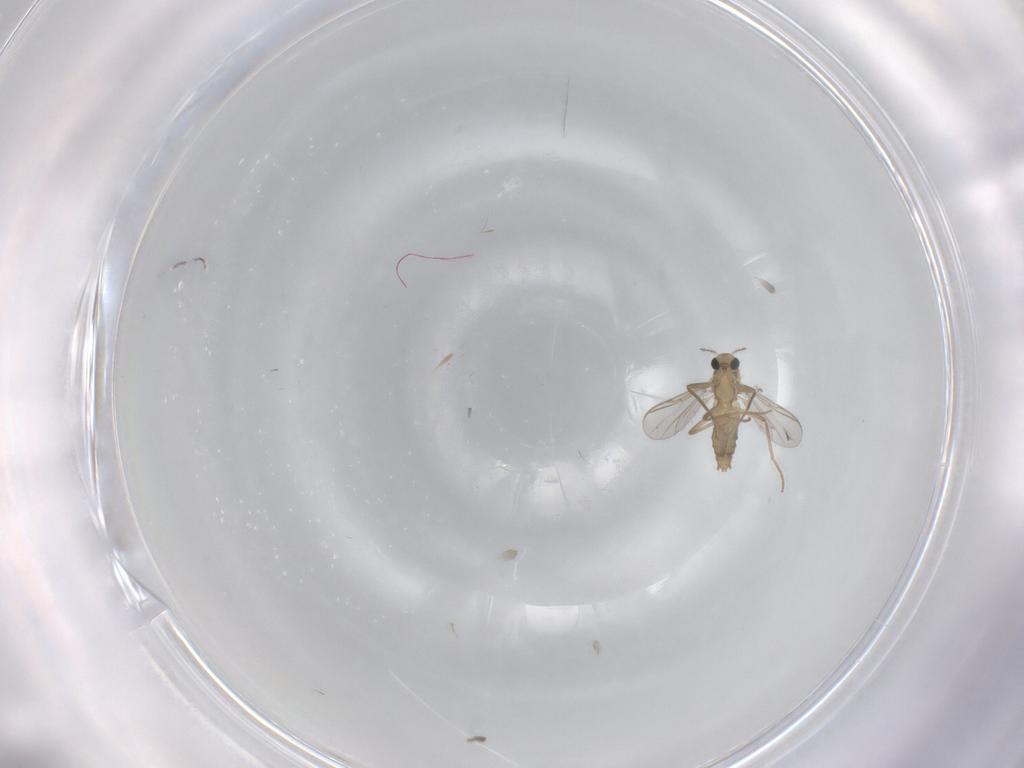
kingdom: Animalia
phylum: Arthropoda
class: Insecta
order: Diptera
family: Chironomidae
